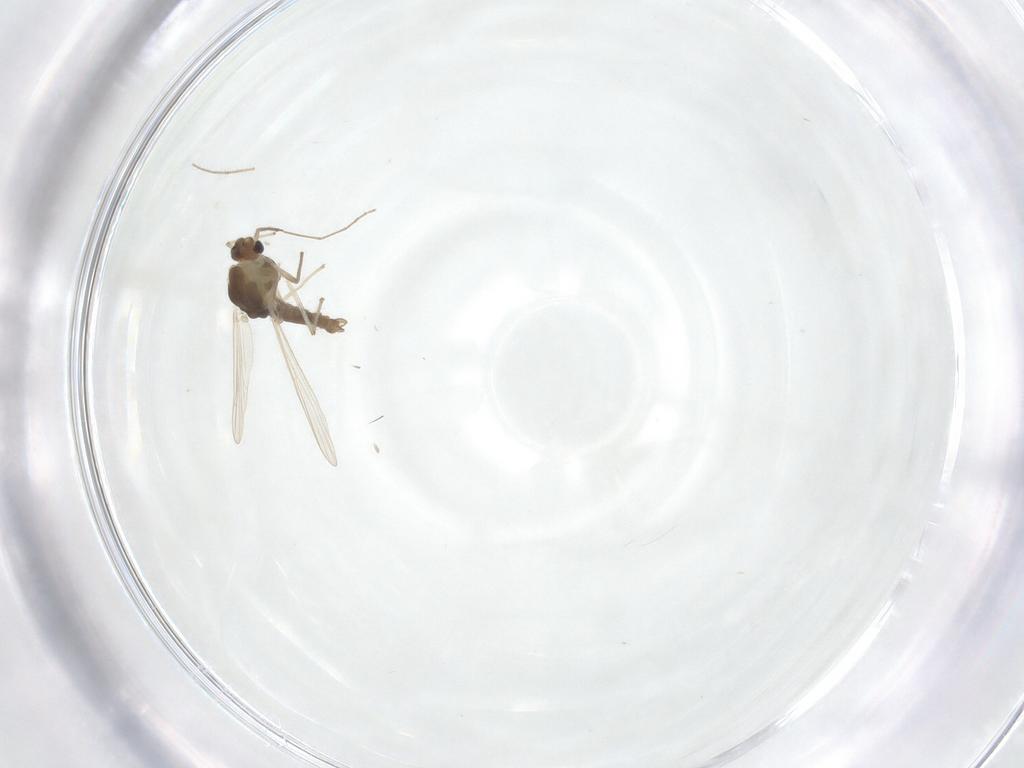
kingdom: Animalia
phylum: Arthropoda
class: Insecta
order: Diptera
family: Chironomidae
